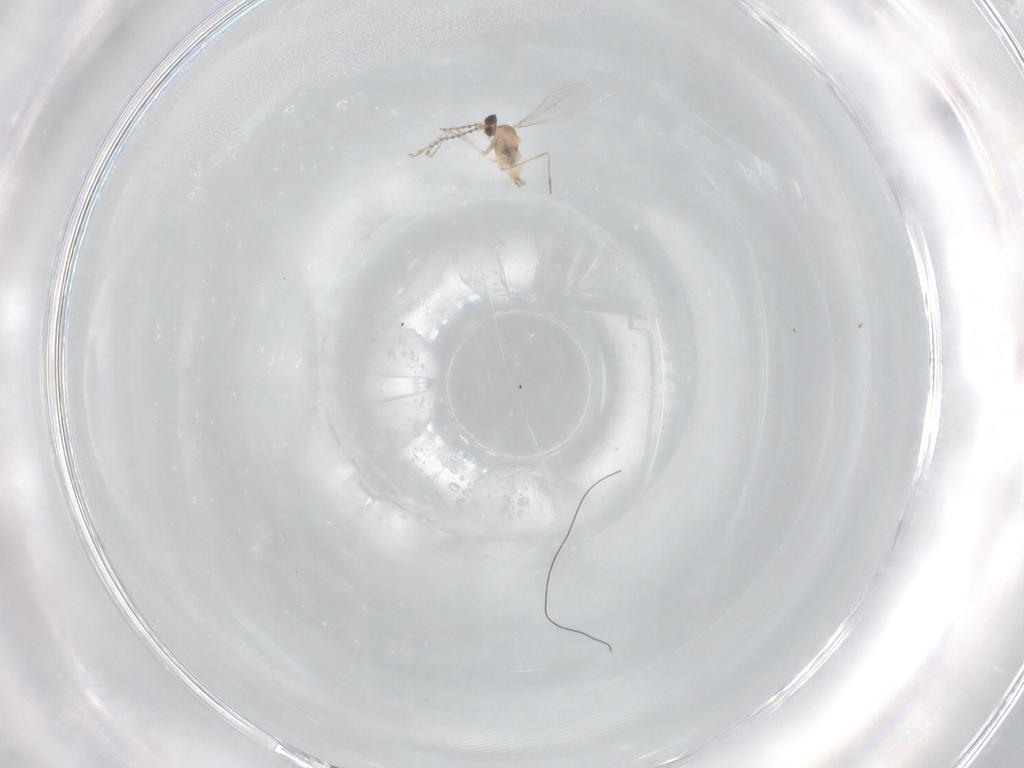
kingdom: Animalia
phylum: Arthropoda
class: Insecta
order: Diptera
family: Cecidomyiidae
